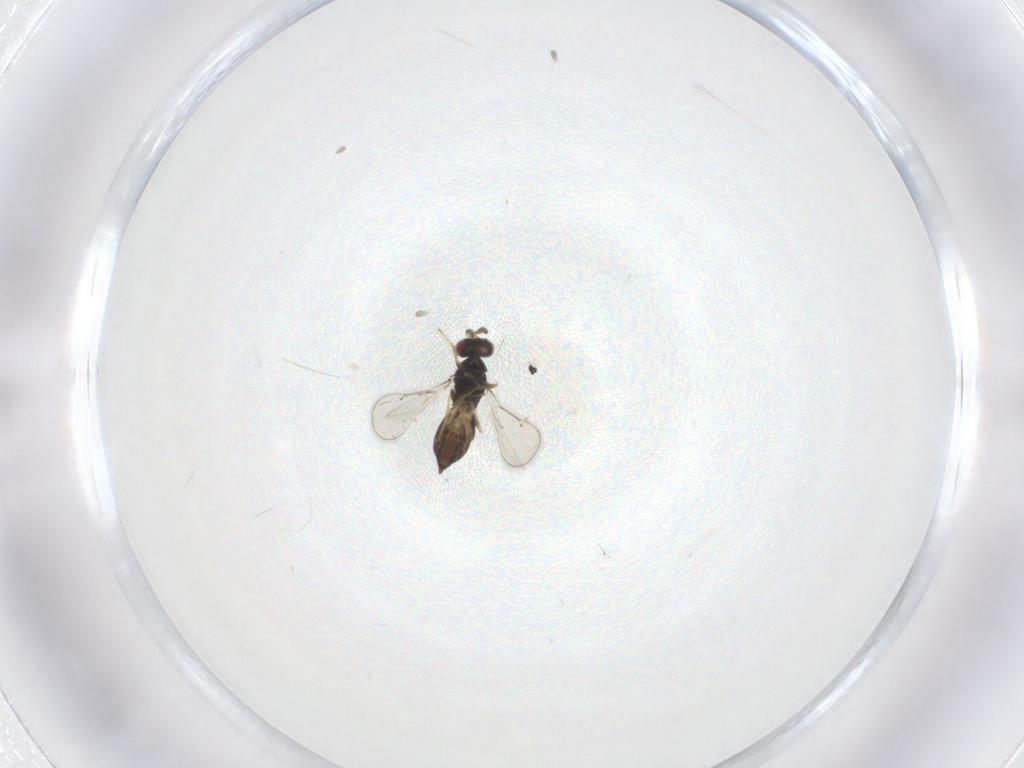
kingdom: Animalia
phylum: Arthropoda
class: Insecta
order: Hymenoptera
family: Eulophidae
